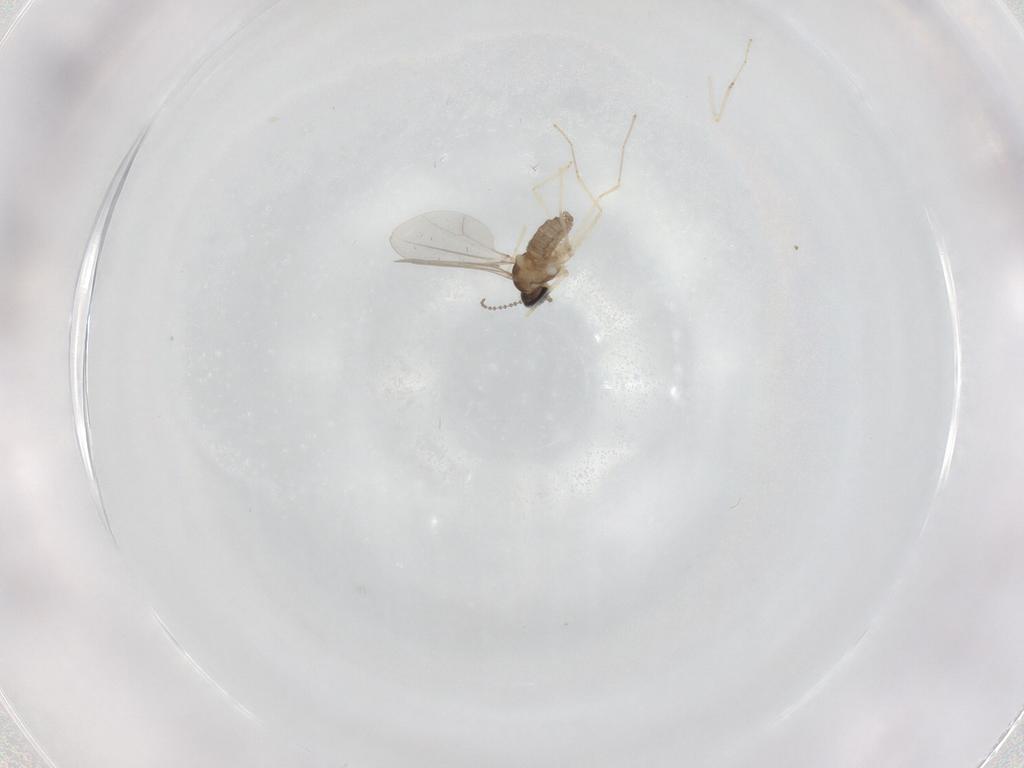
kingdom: Animalia
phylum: Arthropoda
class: Insecta
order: Diptera
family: Cecidomyiidae
